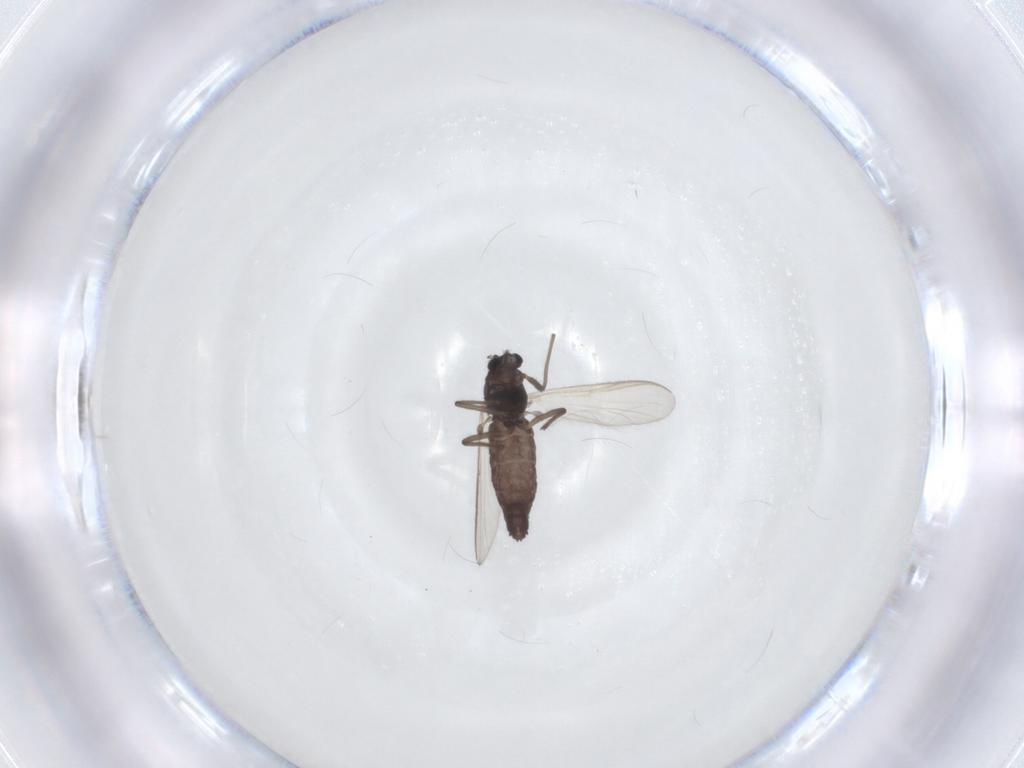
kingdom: Animalia
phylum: Arthropoda
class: Insecta
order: Diptera
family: Chironomidae
